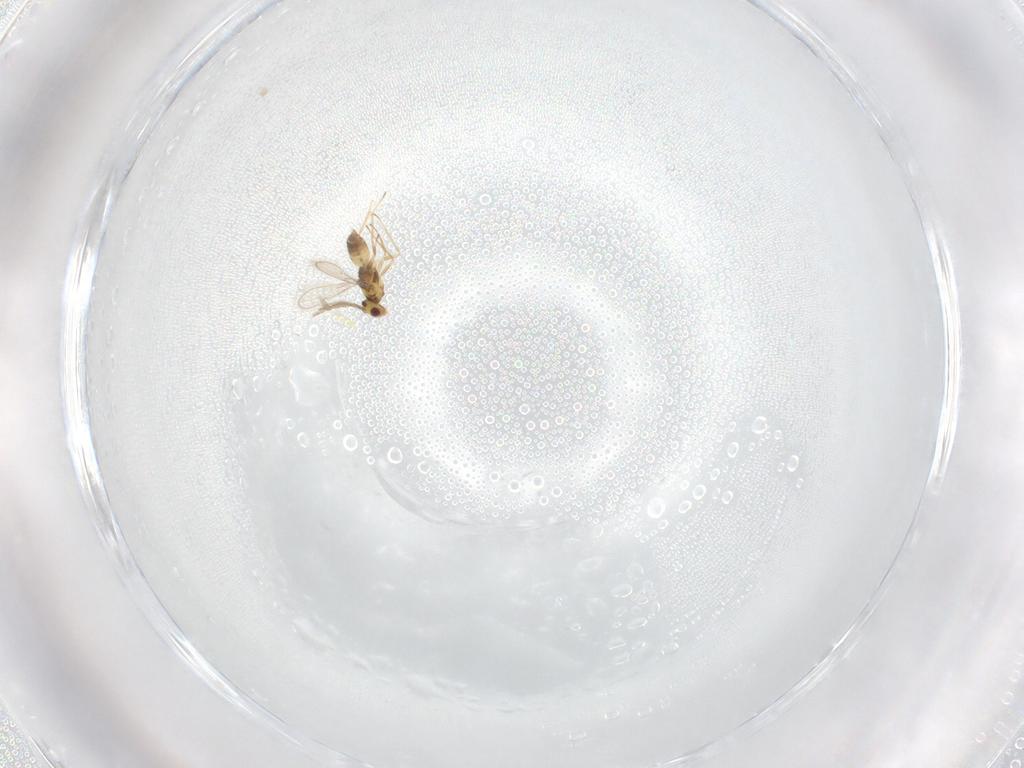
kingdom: Animalia
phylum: Arthropoda
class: Insecta
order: Hymenoptera
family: Eulophidae
